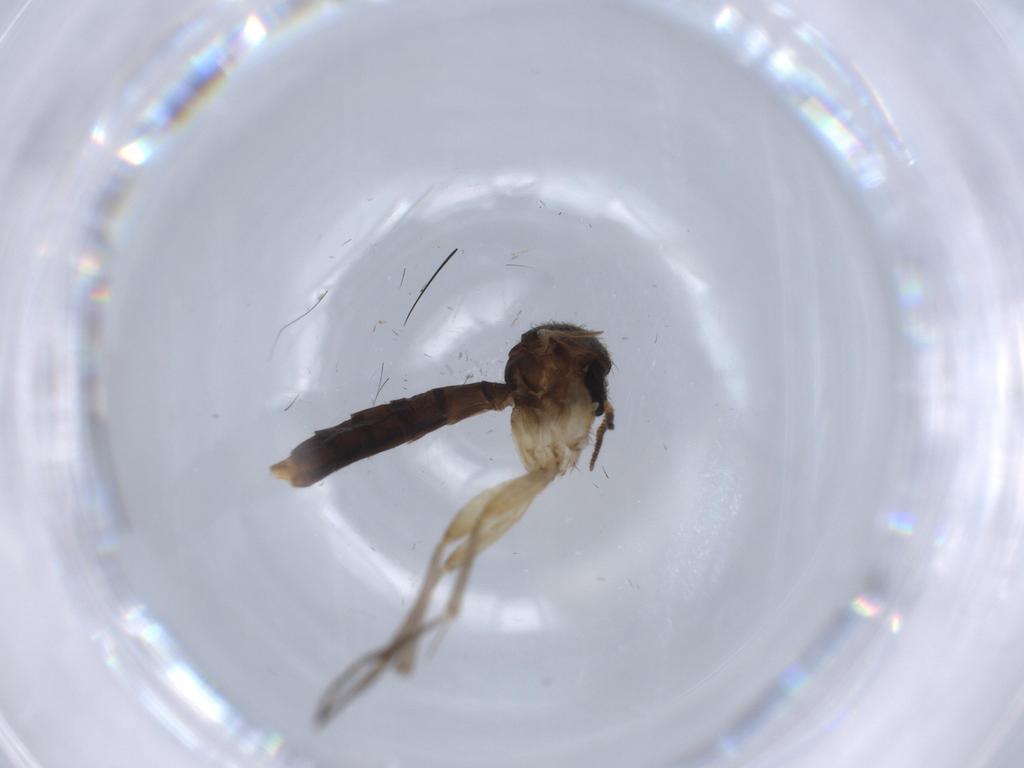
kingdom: Animalia
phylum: Arthropoda
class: Insecta
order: Diptera
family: Phoridae
